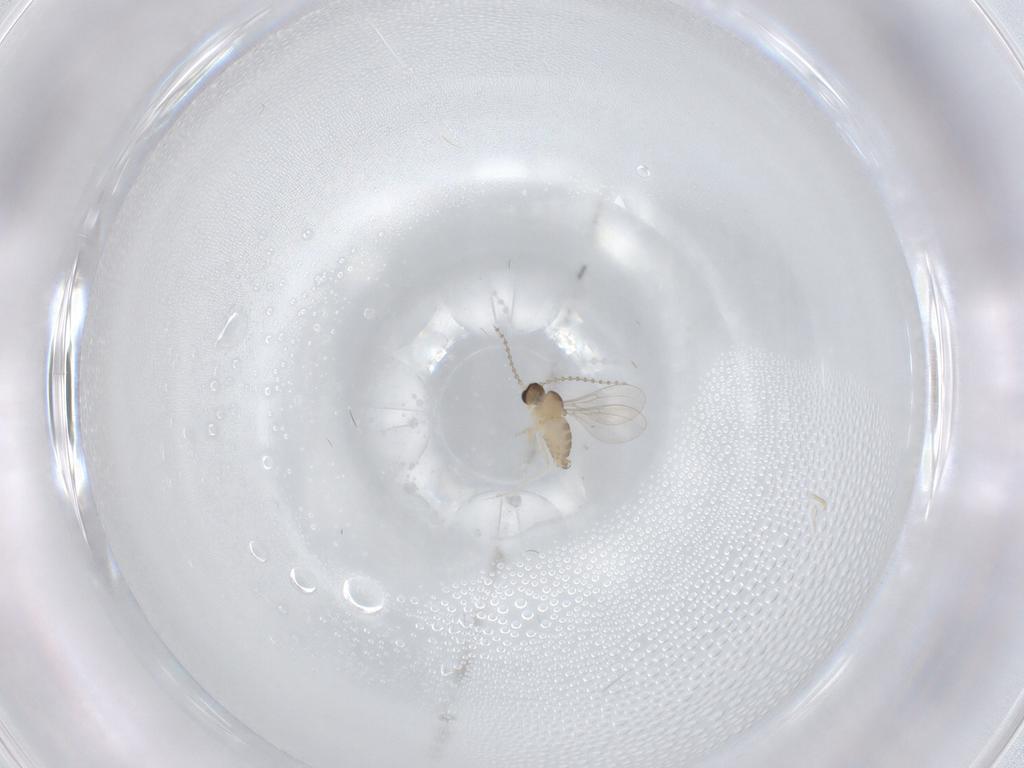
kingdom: Animalia
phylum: Arthropoda
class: Insecta
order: Diptera
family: Cecidomyiidae
